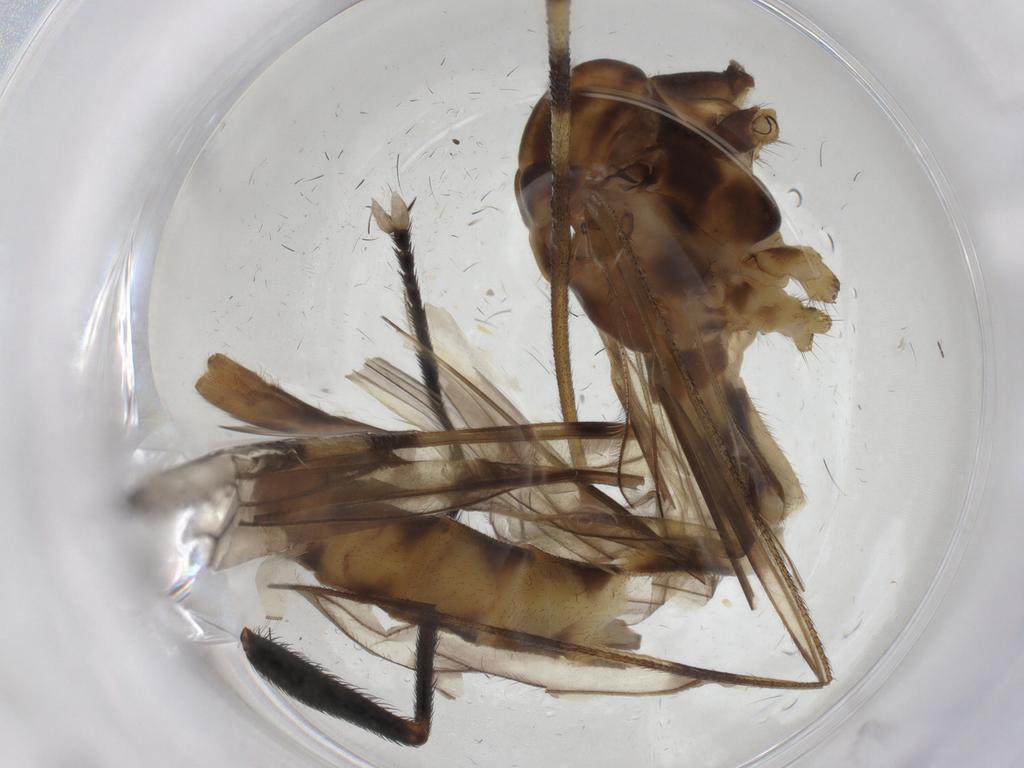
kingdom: Animalia
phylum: Arthropoda
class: Insecta
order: Diptera
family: Limoniidae
